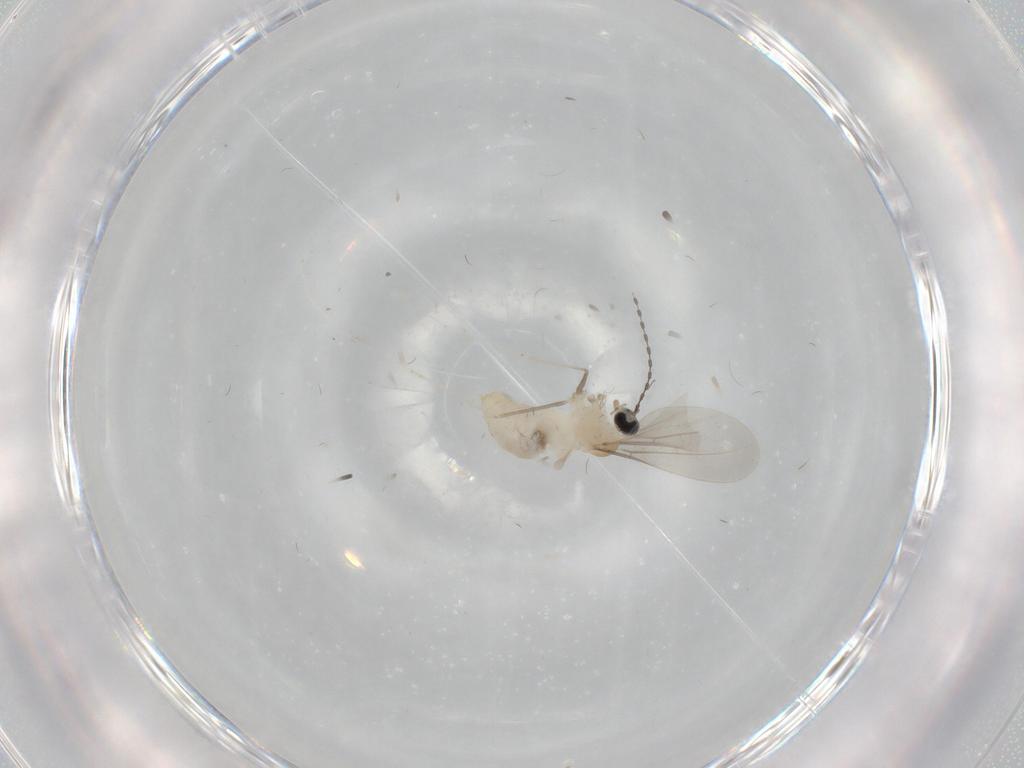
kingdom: Animalia
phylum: Arthropoda
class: Insecta
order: Diptera
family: Cecidomyiidae
